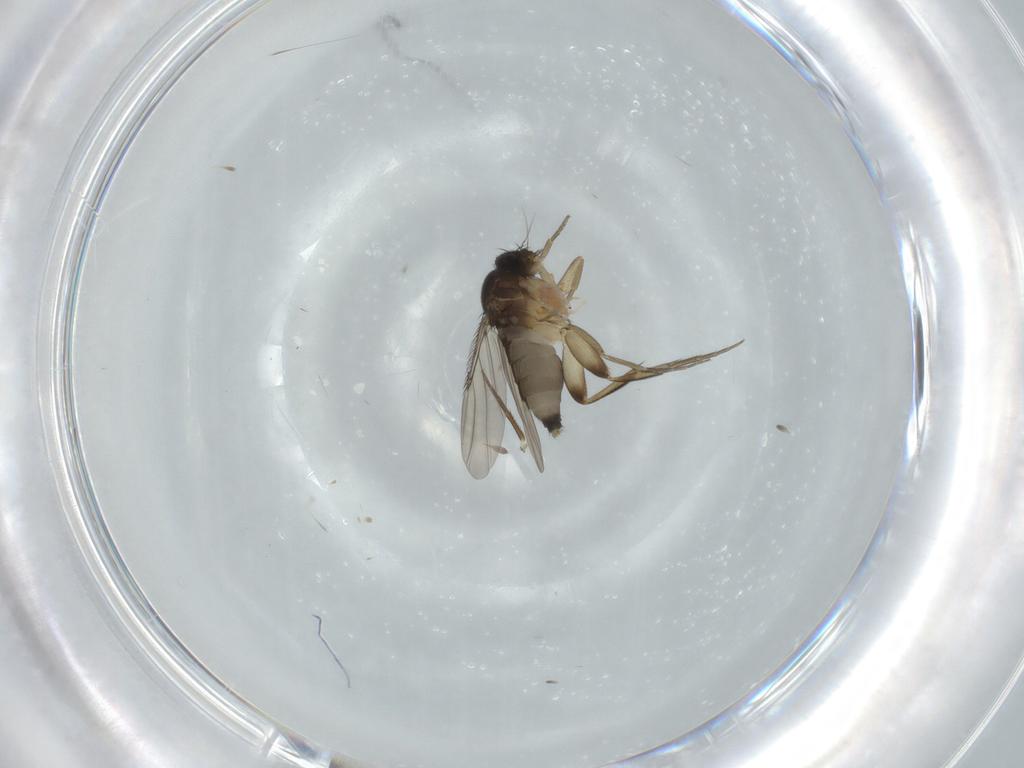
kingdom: Animalia
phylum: Arthropoda
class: Insecta
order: Diptera
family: Phoridae
